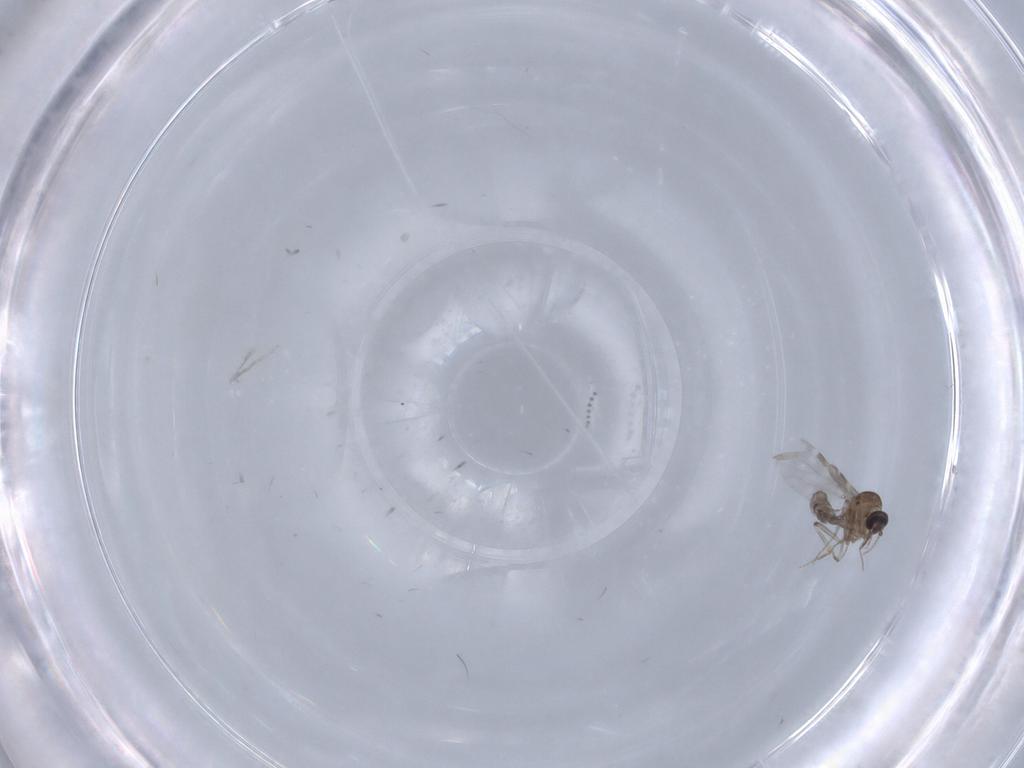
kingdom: Animalia
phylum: Arthropoda
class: Insecta
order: Diptera
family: Psychodidae
